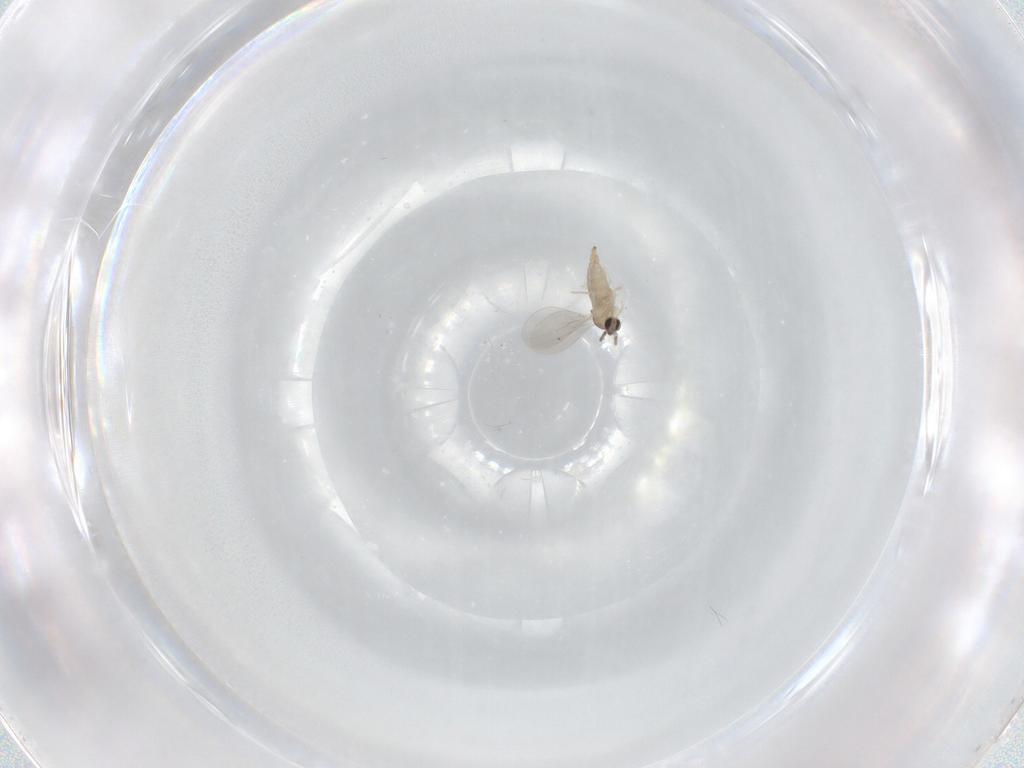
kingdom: Animalia
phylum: Arthropoda
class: Insecta
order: Diptera
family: Cecidomyiidae
